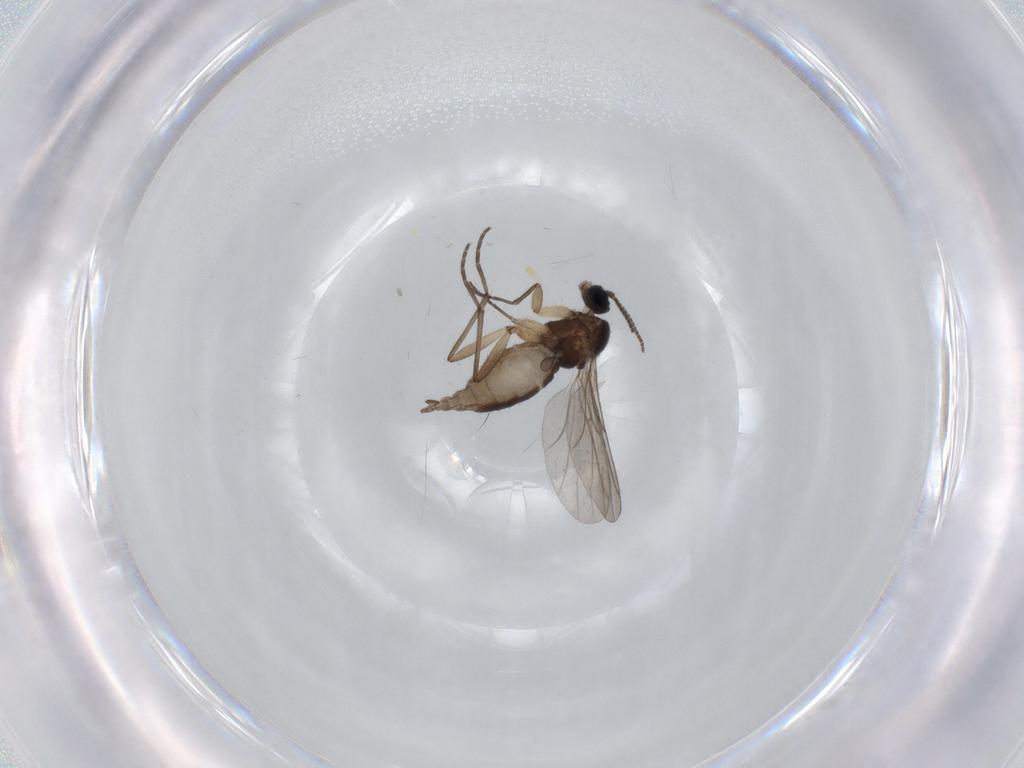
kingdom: Animalia
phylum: Arthropoda
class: Insecta
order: Diptera
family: Sciaridae
